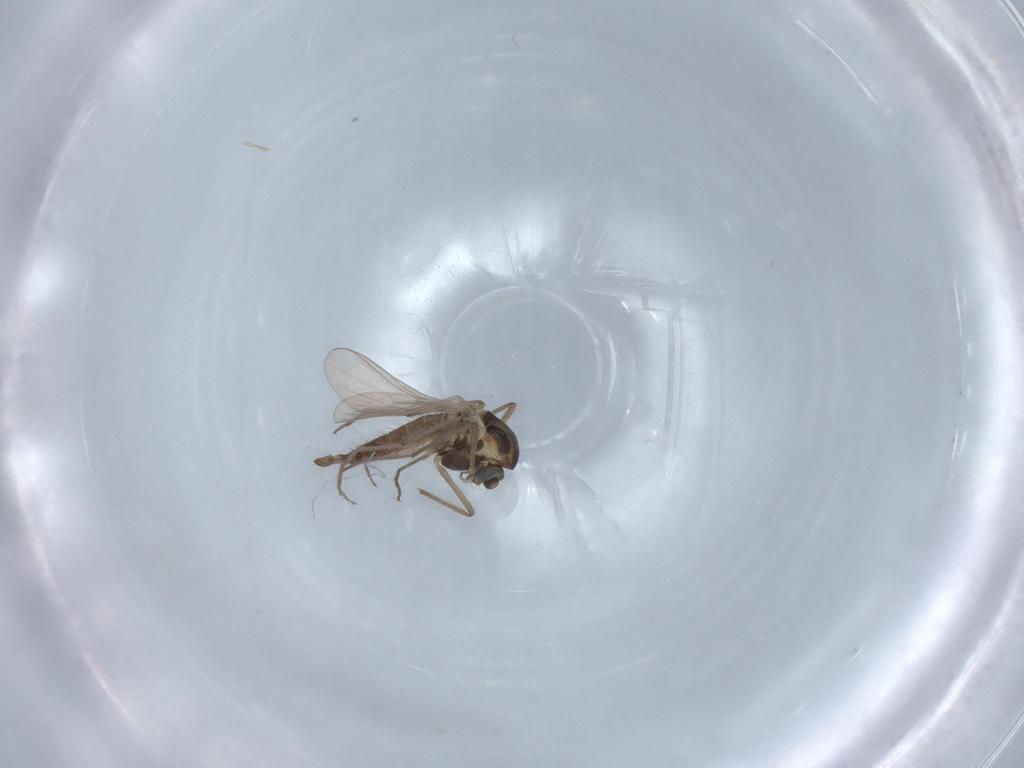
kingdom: Animalia
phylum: Arthropoda
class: Insecta
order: Diptera
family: Chironomidae
